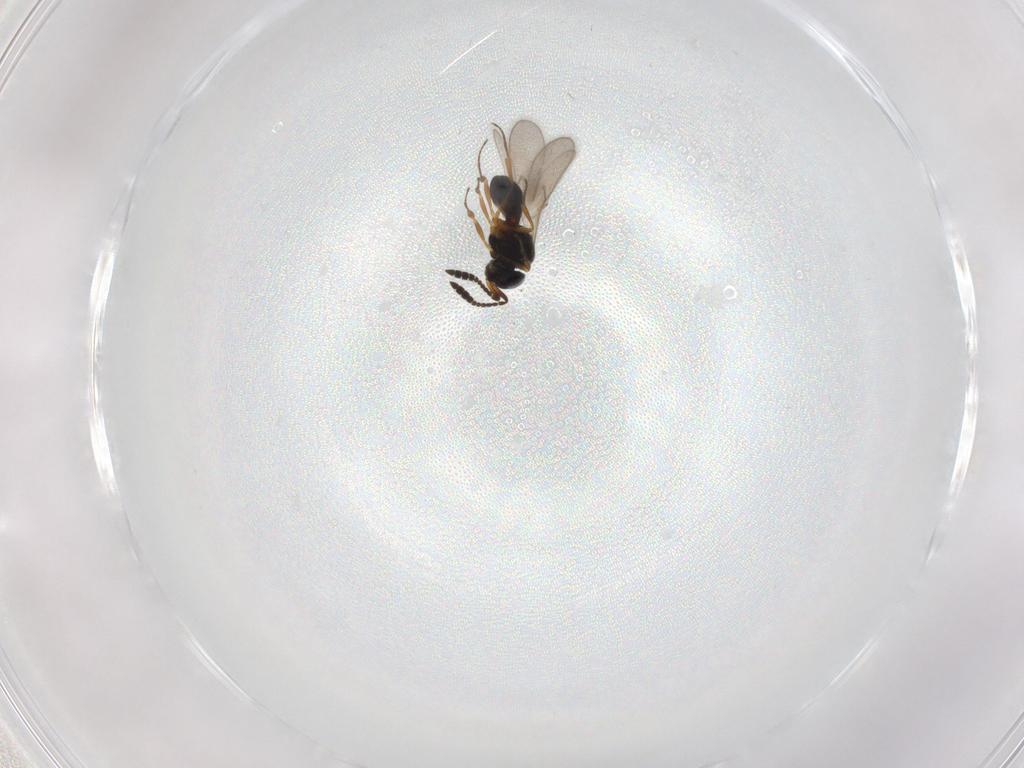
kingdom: Animalia
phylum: Arthropoda
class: Insecta
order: Hymenoptera
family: Scelionidae
